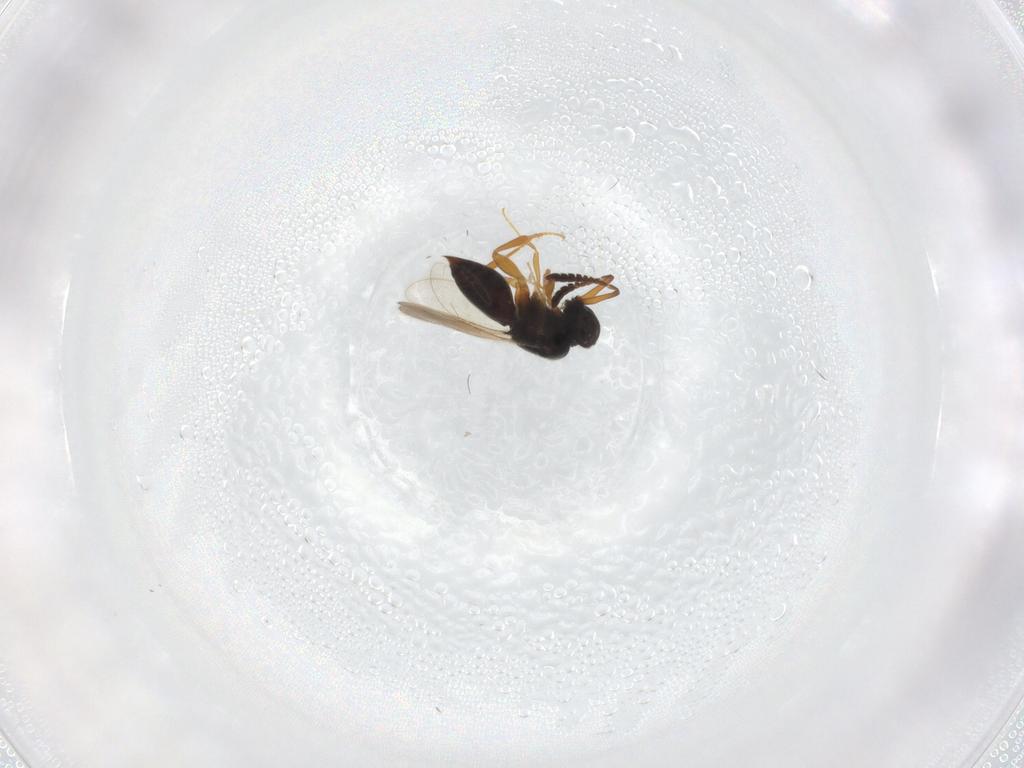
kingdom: Animalia
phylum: Arthropoda
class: Insecta
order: Hymenoptera
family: Ceraphronidae
